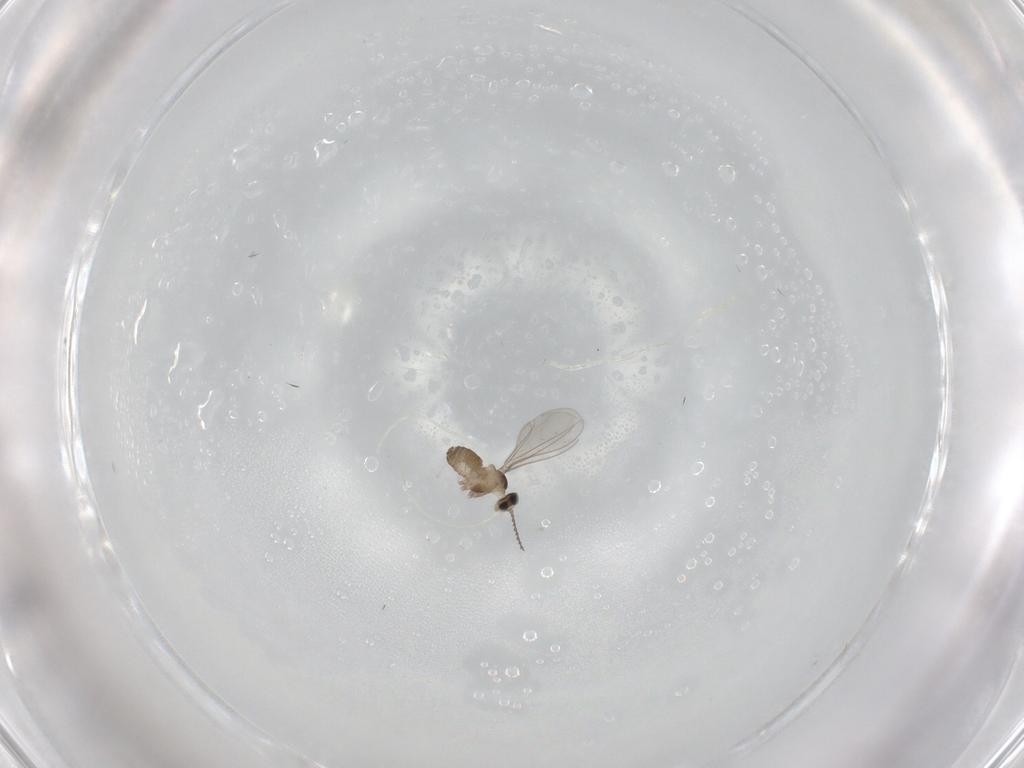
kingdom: Animalia
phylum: Arthropoda
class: Insecta
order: Diptera
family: Cecidomyiidae
